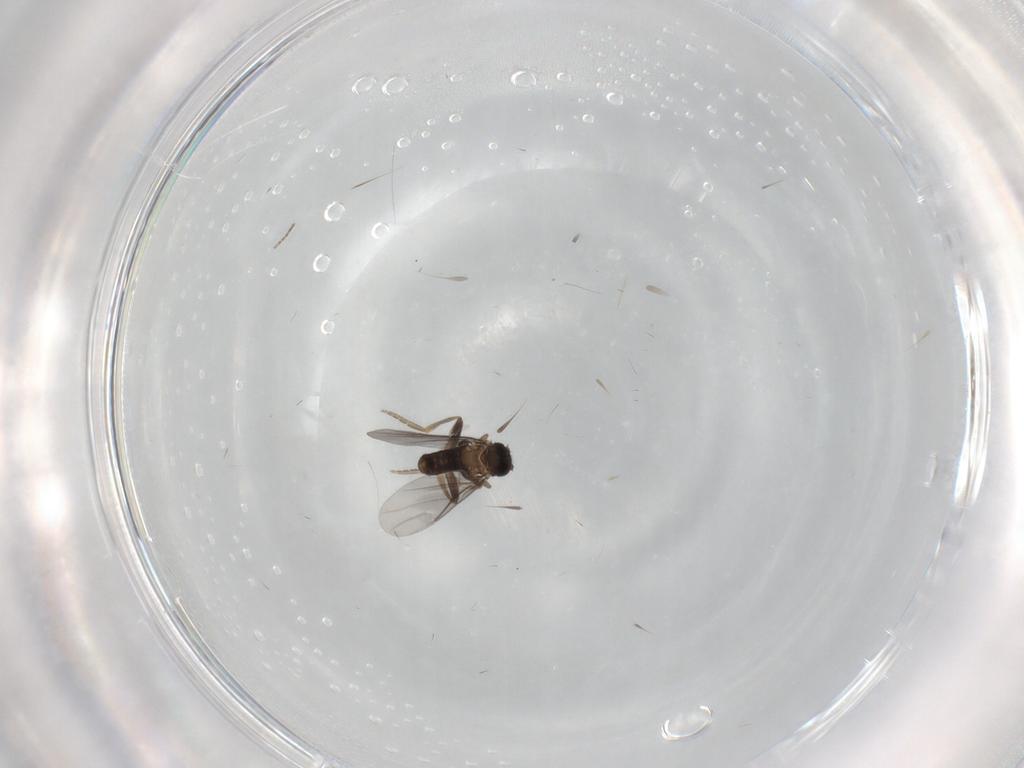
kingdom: Animalia
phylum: Arthropoda
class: Insecta
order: Diptera
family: Phoridae
